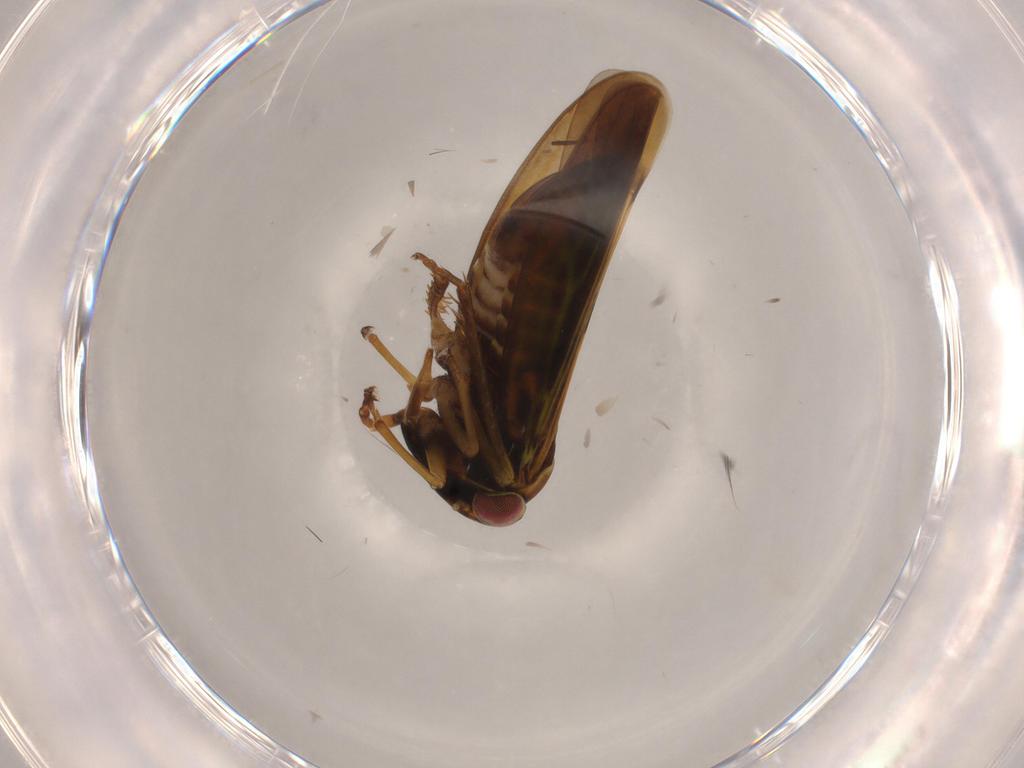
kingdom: Animalia
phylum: Arthropoda
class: Insecta
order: Hemiptera
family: Cicadellidae
